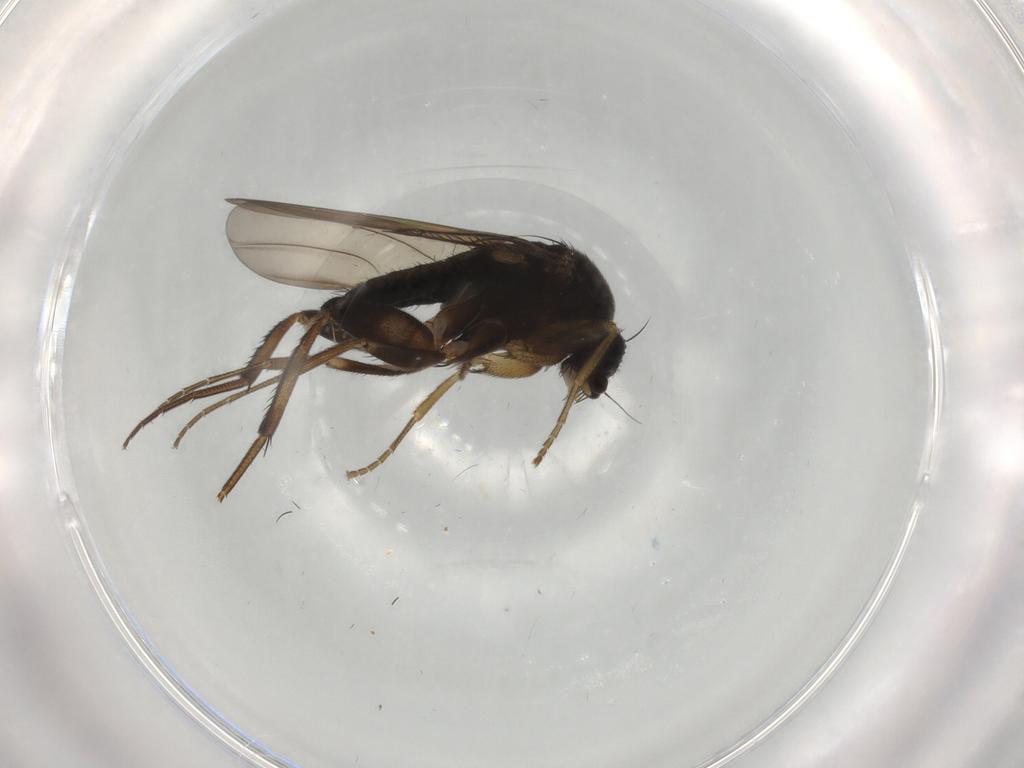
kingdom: Animalia
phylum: Arthropoda
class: Insecta
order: Diptera
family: Phoridae
